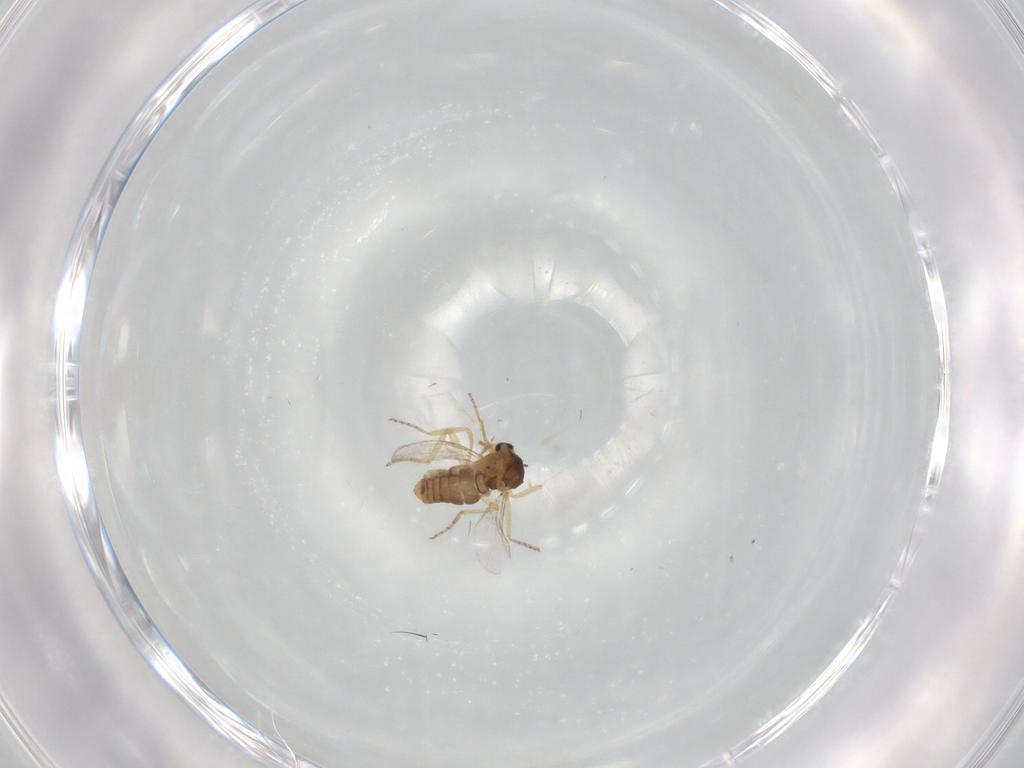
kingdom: Animalia
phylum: Arthropoda
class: Insecta
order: Diptera
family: Ceratopogonidae
